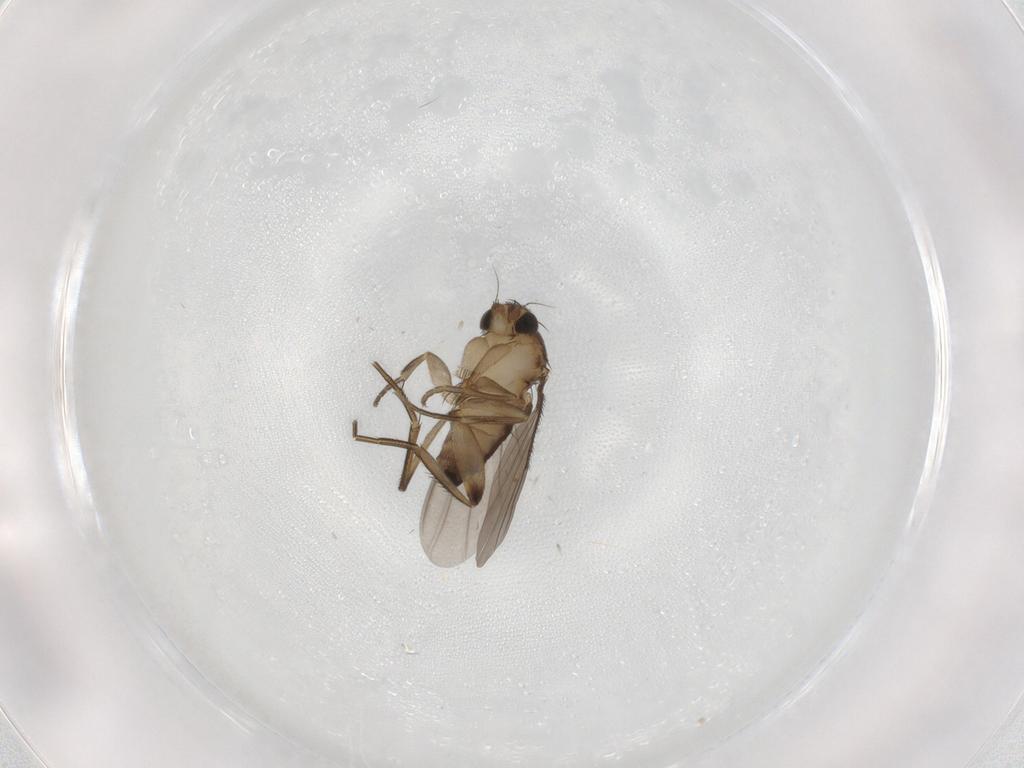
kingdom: Animalia
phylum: Arthropoda
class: Insecta
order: Diptera
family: Phoridae
